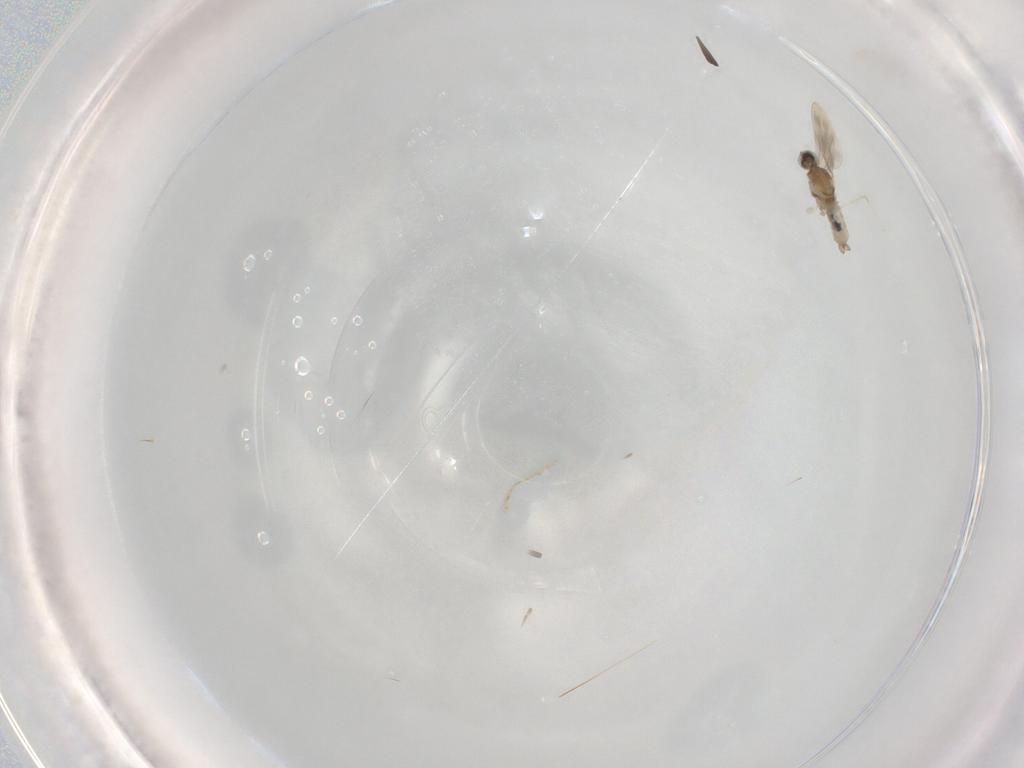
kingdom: Animalia
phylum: Arthropoda
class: Insecta
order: Diptera
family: Cecidomyiidae
